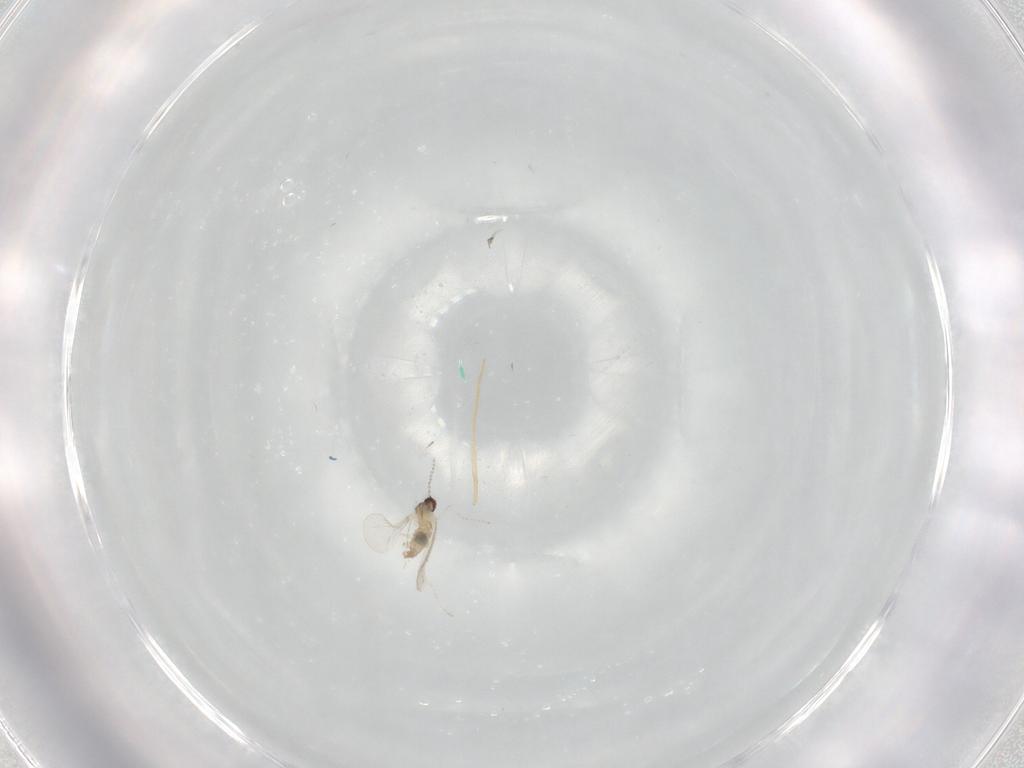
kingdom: Animalia
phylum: Arthropoda
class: Insecta
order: Diptera
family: Cecidomyiidae
